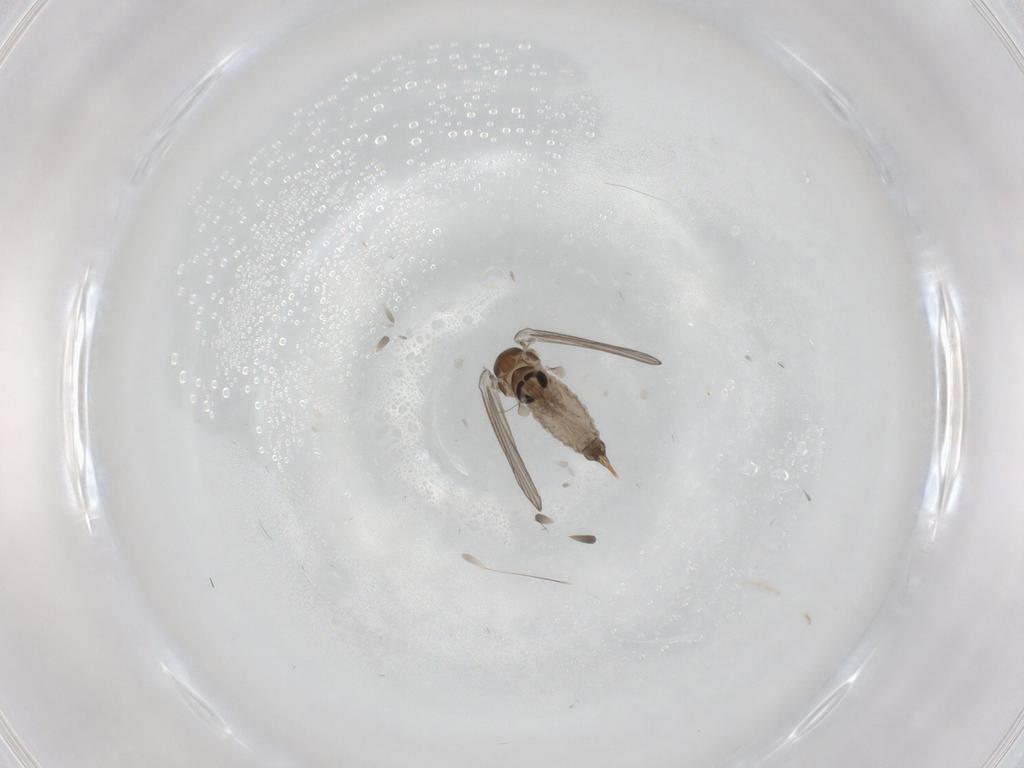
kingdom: Animalia
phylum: Arthropoda
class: Insecta
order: Diptera
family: Psychodidae
